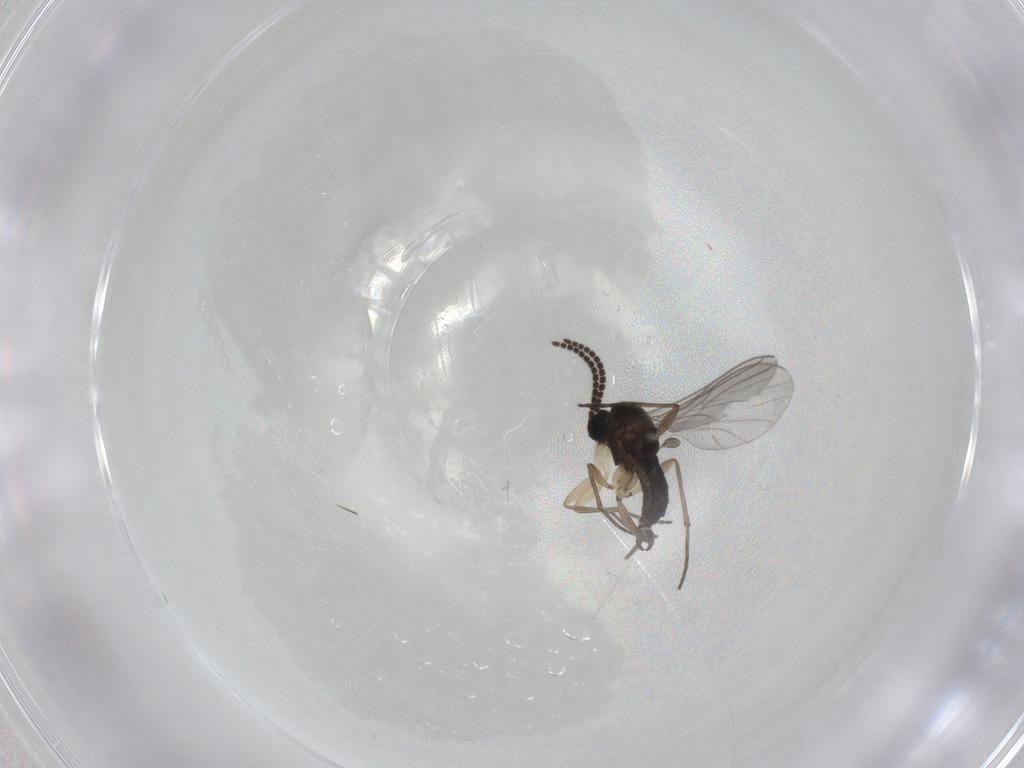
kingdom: Animalia
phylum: Arthropoda
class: Insecta
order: Diptera
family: Sciaridae
